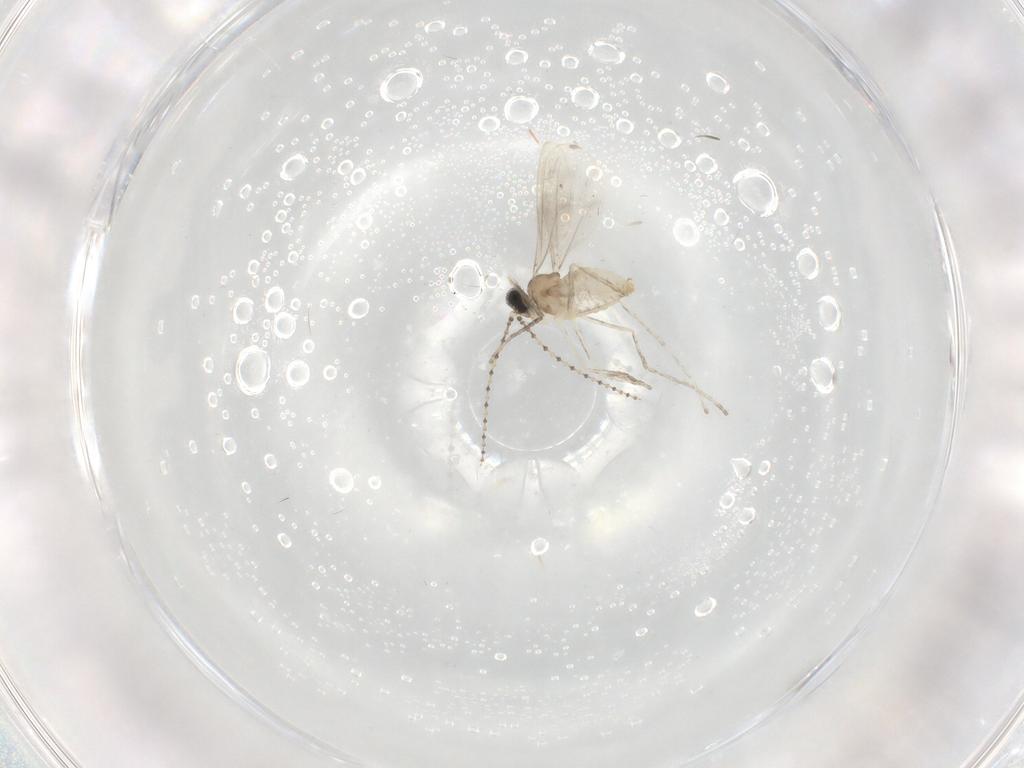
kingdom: Animalia
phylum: Arthropoda
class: Insecta
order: Diptera
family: Cecidomyiidae
